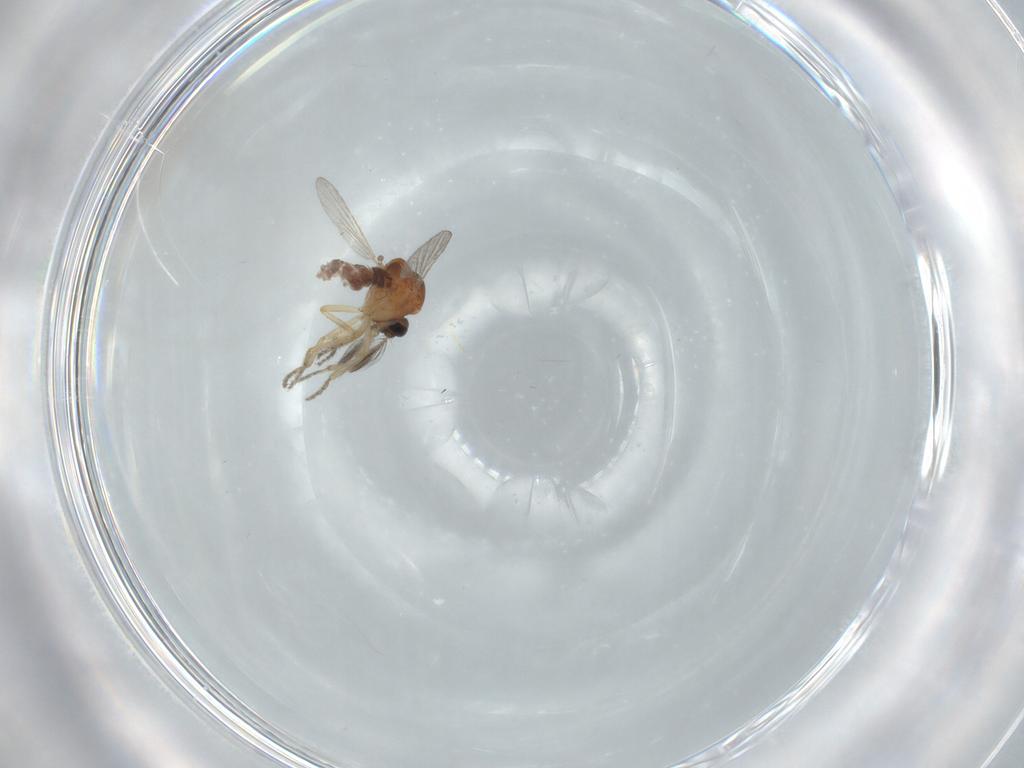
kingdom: Animalia
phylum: Arthropoda
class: Insecta
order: Diptera
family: Ceratopogonidae
